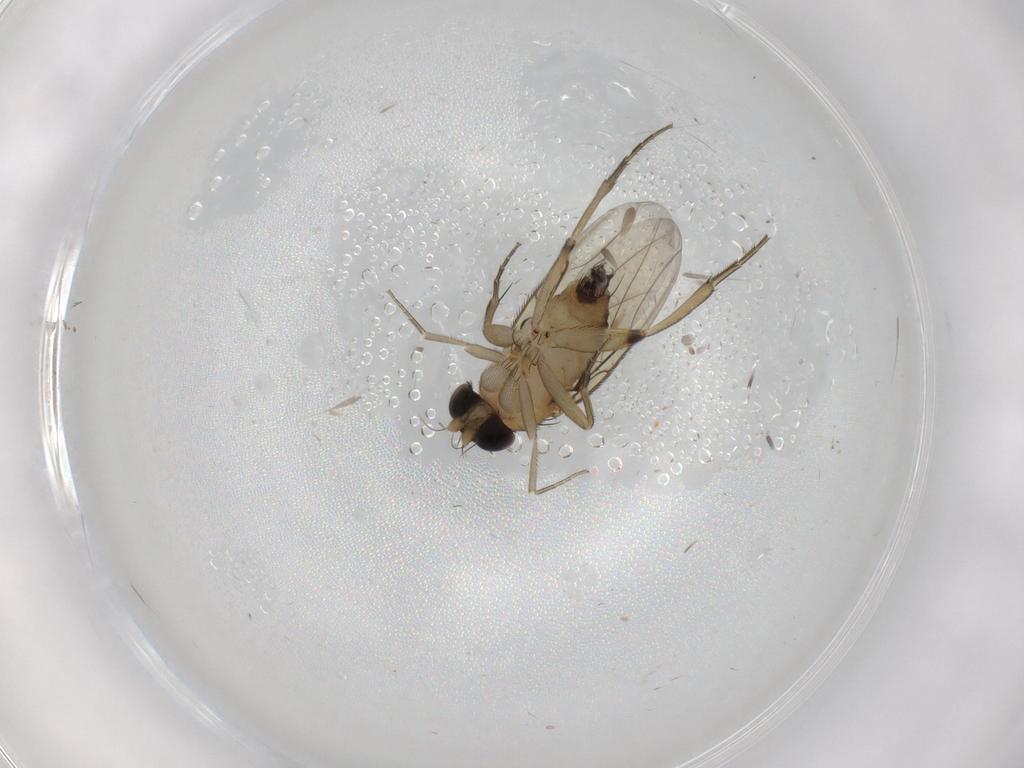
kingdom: Animalia
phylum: Arthropoda
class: Insecta
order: Diptera
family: Phoridae
